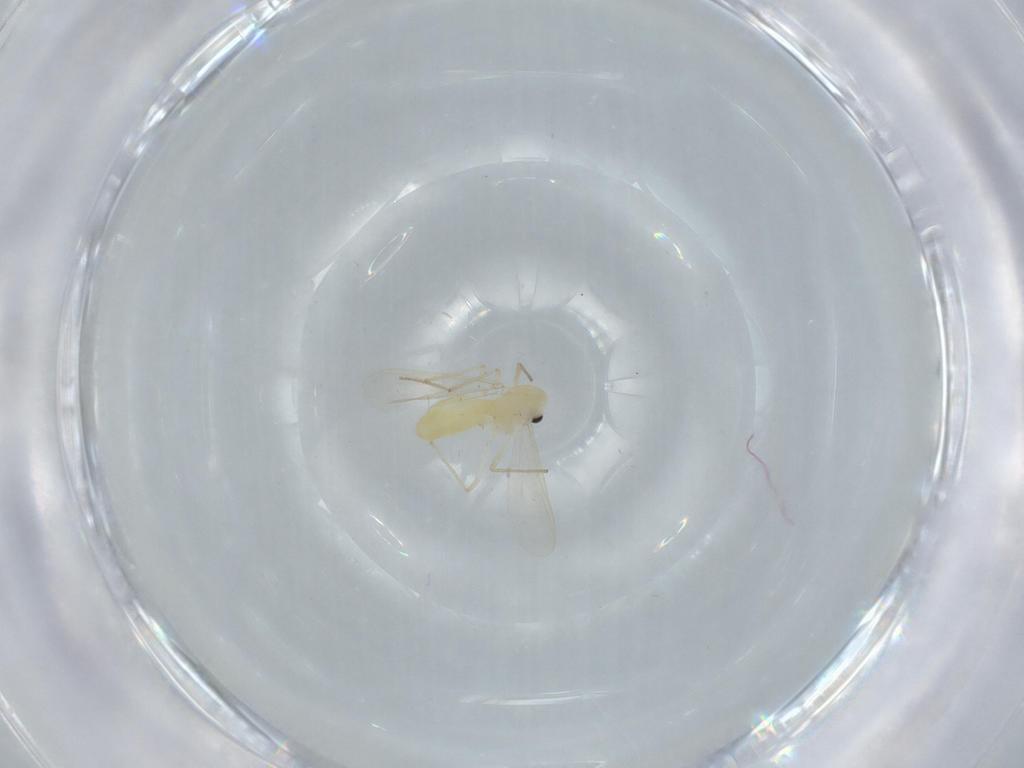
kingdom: Animalia
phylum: Arthropoda
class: Insecta
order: Diptera
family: Chironomidae
